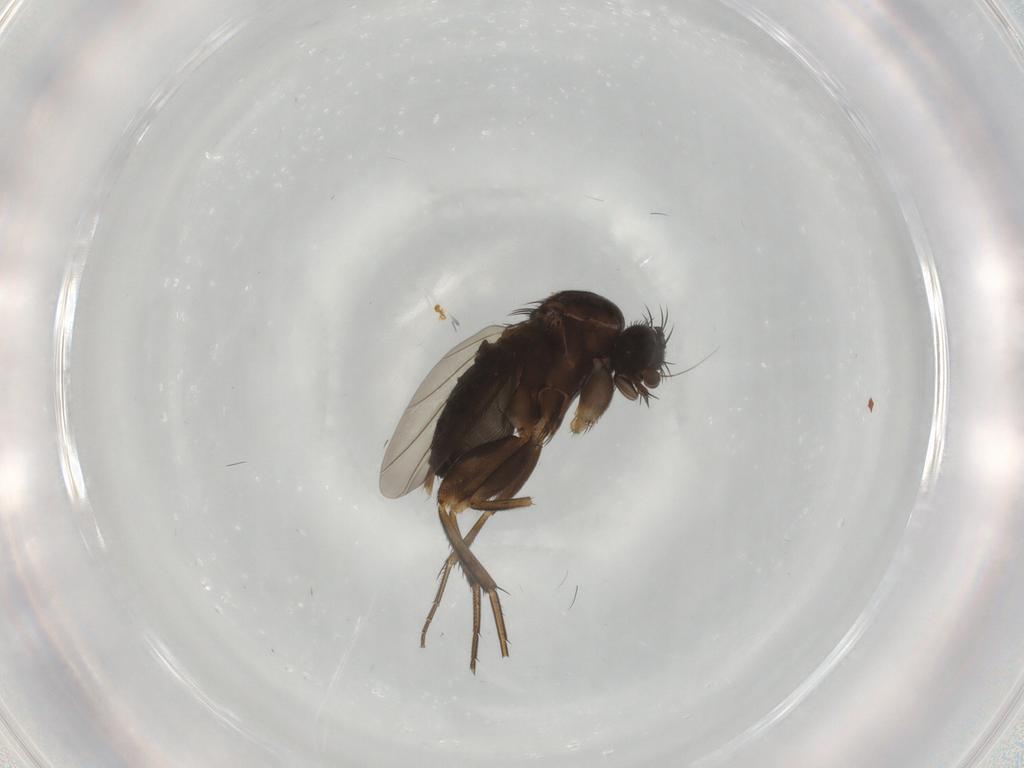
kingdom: Animalia
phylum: Arthropoda
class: Insecta
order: Diptera
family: Phoridae
